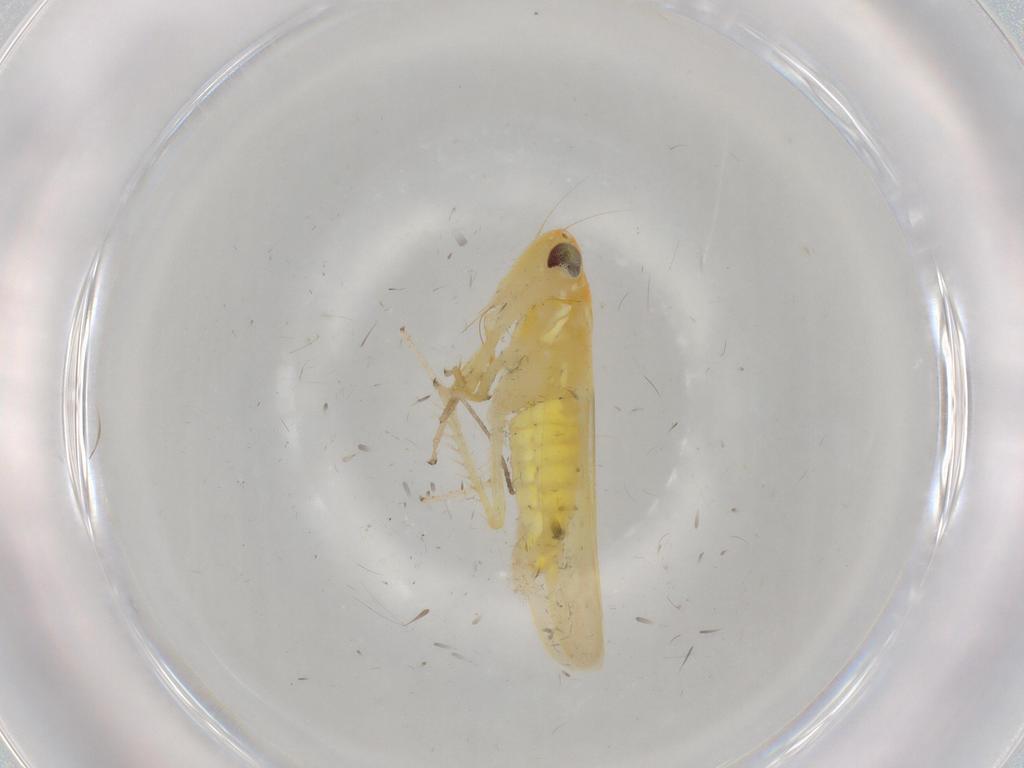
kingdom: Animalia
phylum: Arthropoda
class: Insecta
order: Hemiptera
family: Cicadellidae
